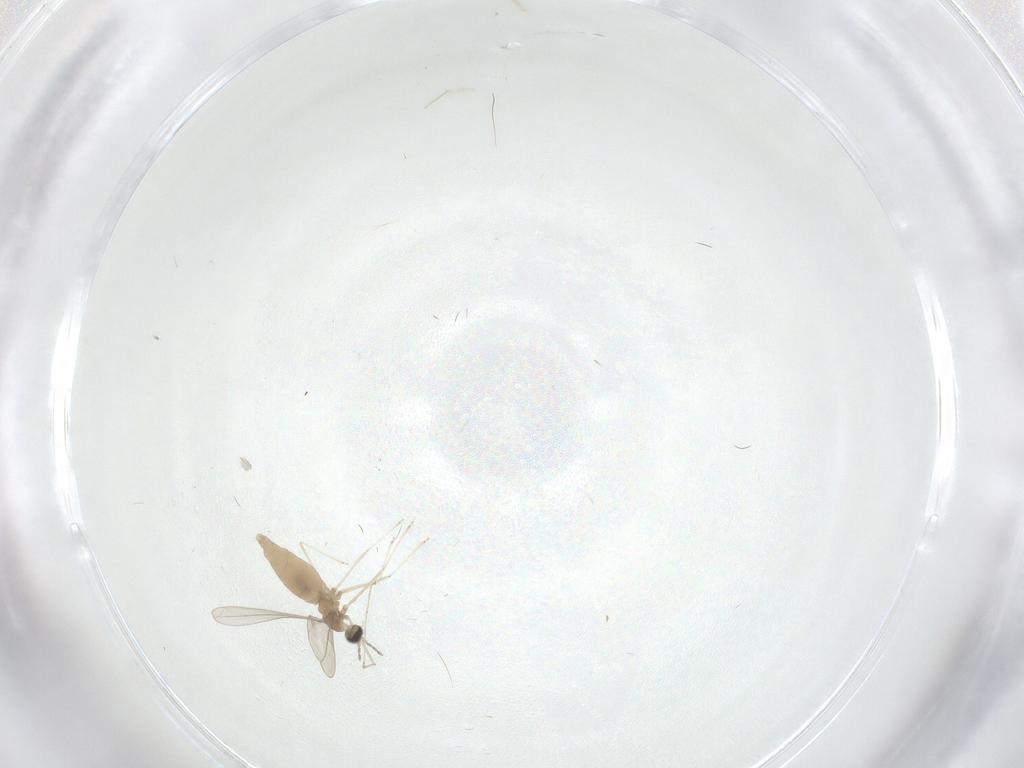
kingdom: Animalia
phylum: Arthropoda
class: Insecta
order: Diptera
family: Cecidomyiidae
